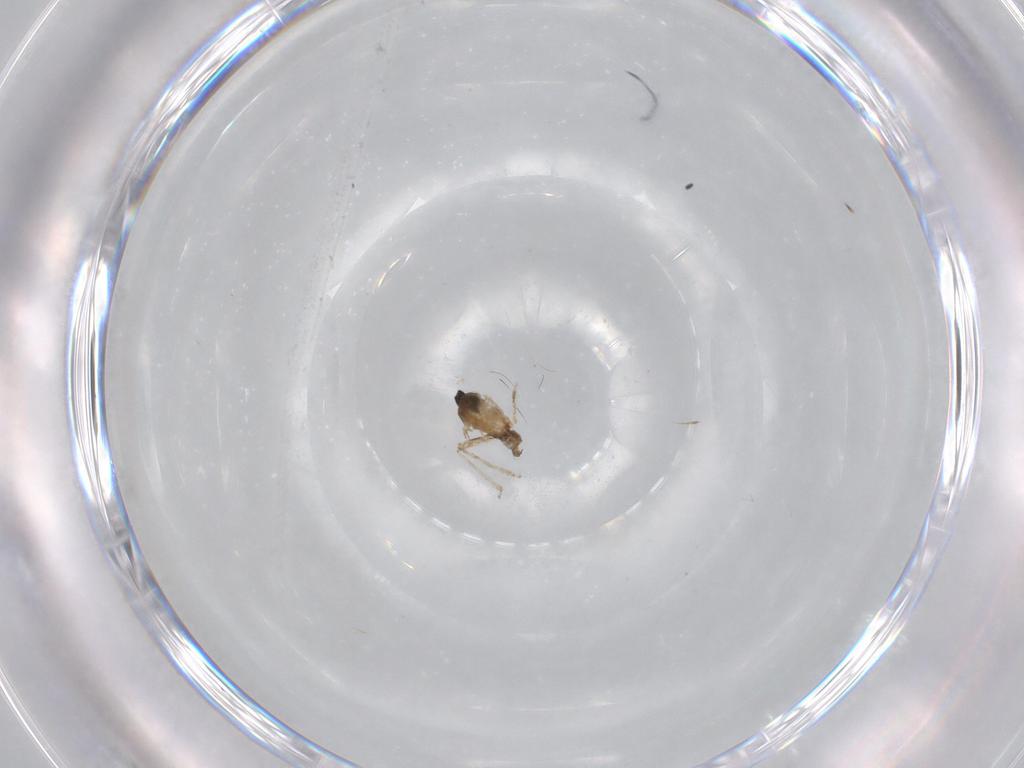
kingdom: Animalia
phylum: Arthropoda
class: Insecta
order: Diptera
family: Cecidomyiidae
